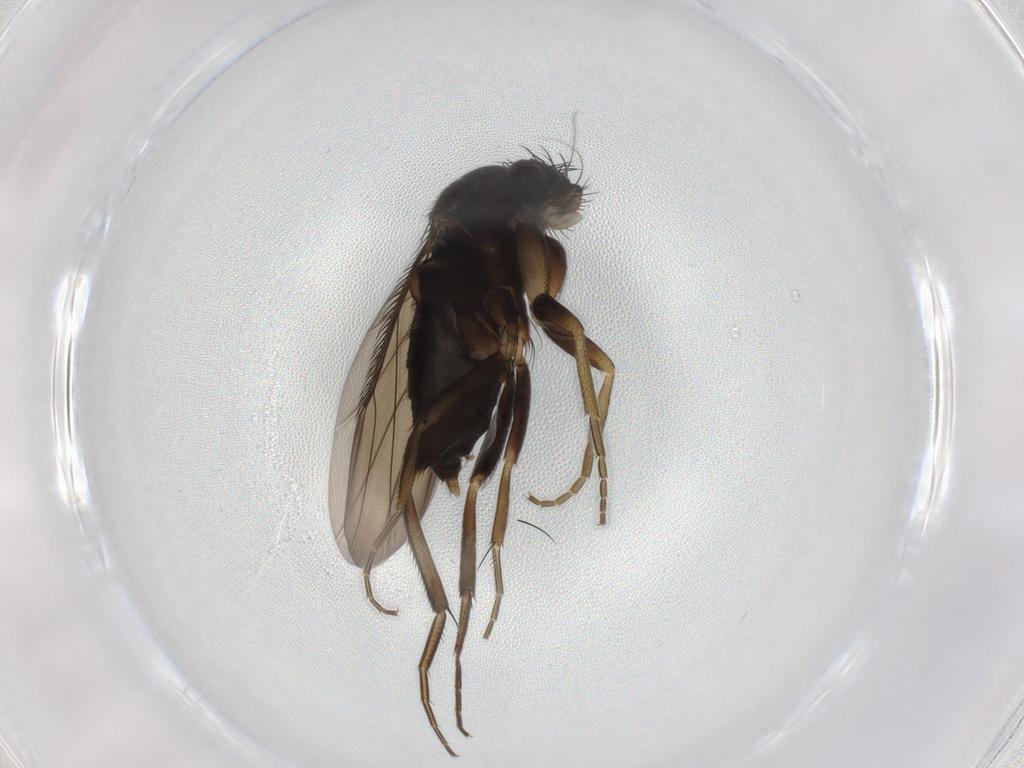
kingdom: Animalia
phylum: Arthropoda
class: Insecta
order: Diptera
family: Phoridae
